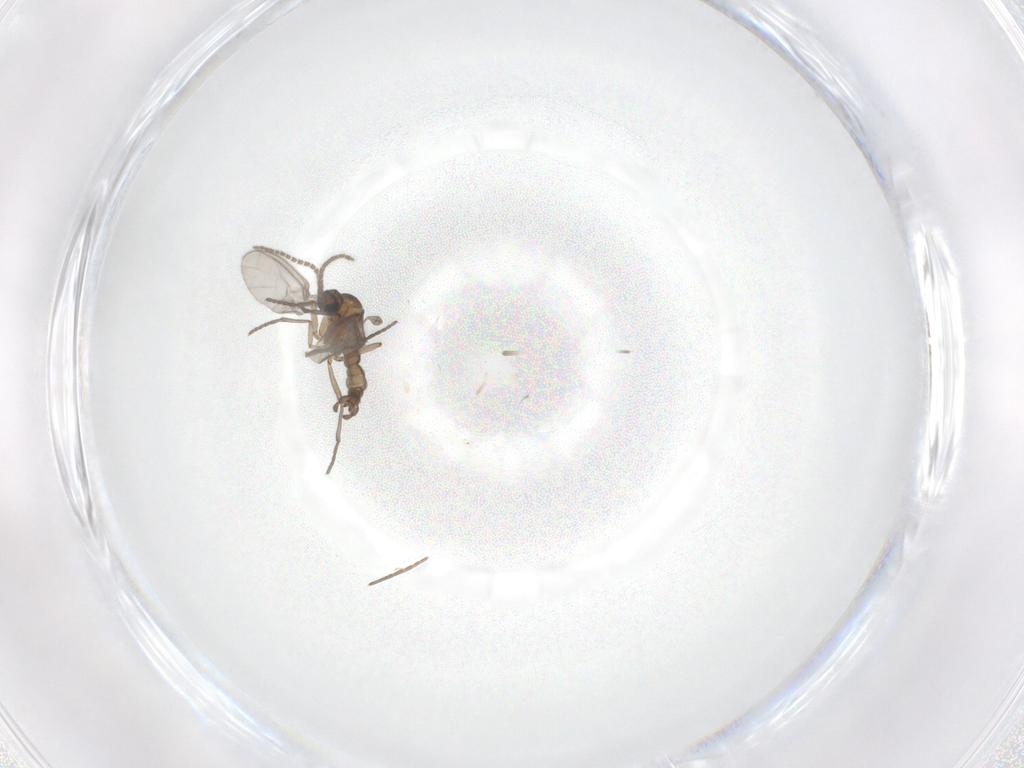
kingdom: Animalia
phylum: Arthropoda
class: Insecta
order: Diptera
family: Sciaridae
